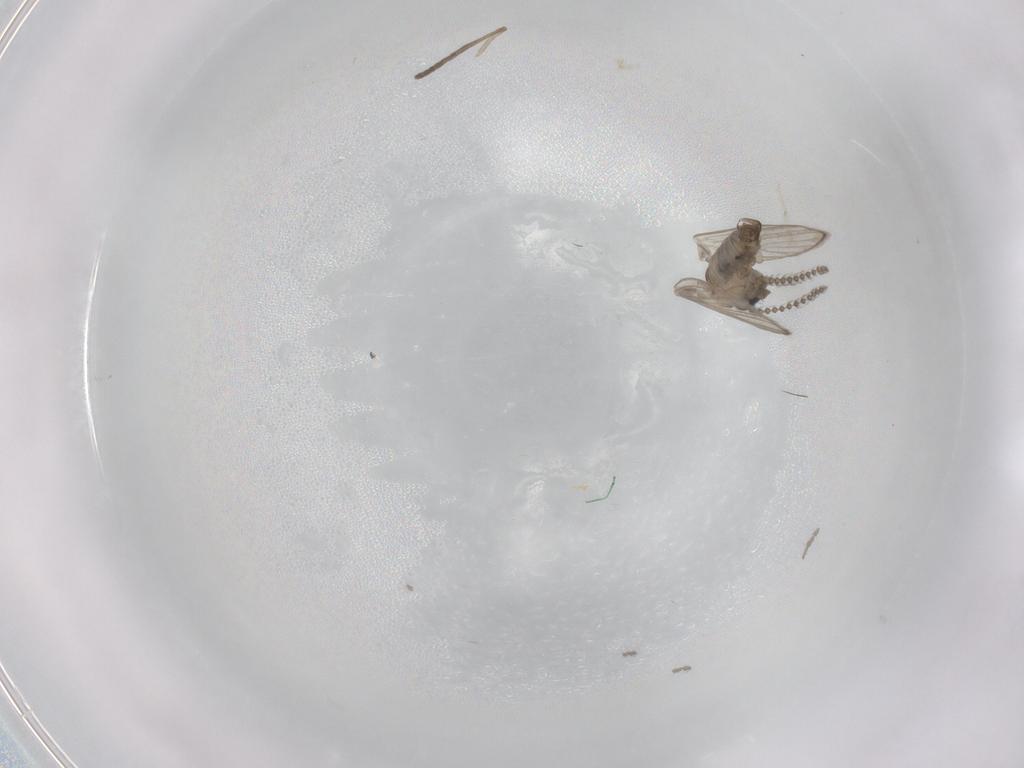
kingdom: Animalia
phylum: Arthropoda
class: Insecta
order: Diptera
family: Psychodidae
